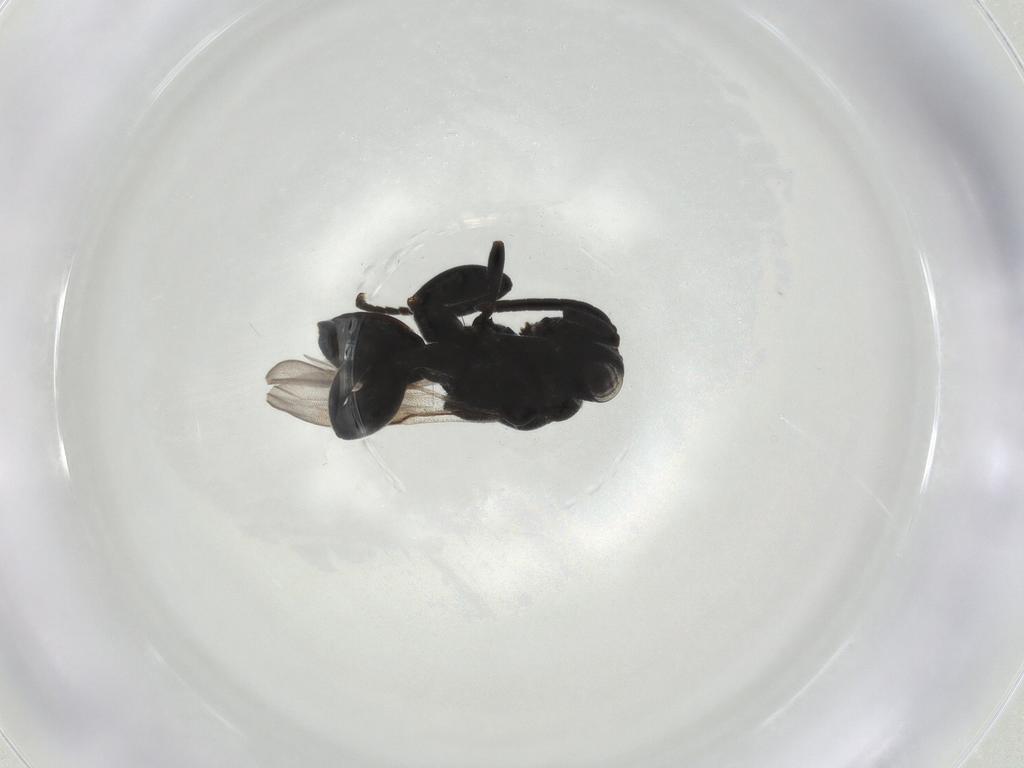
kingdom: Animalia
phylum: Arthropoda
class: Insecta
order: Hymenoptera
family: Chalcididae
